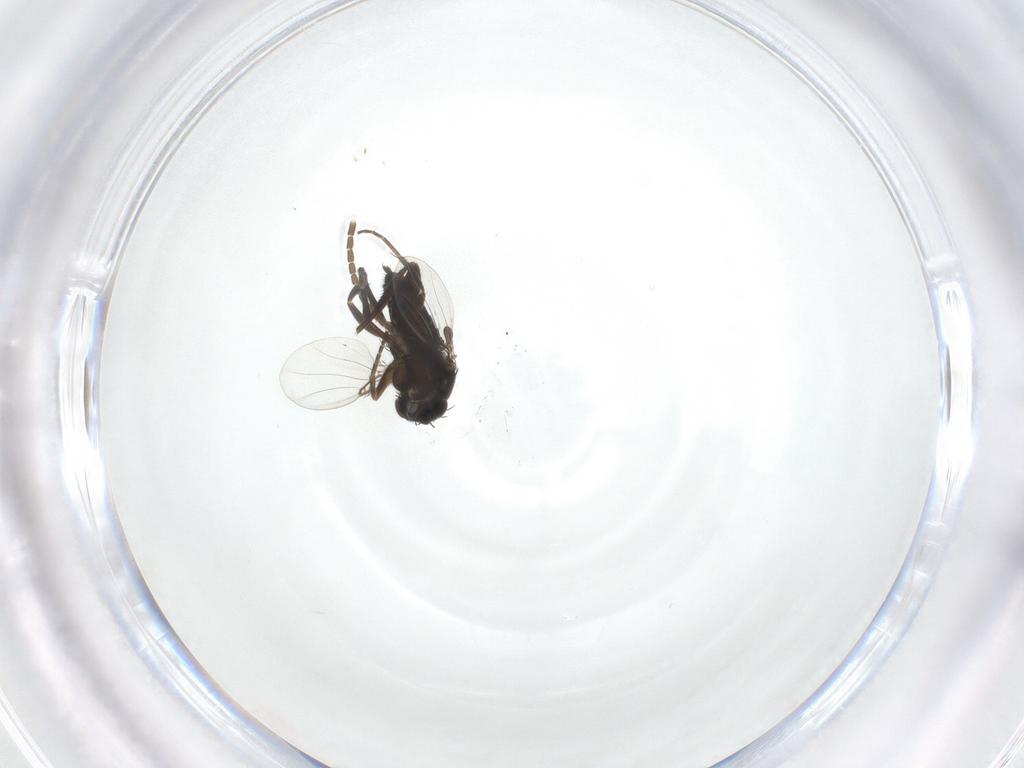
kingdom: Animalia
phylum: Arthropoda
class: Insecta
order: Diptera
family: Phoridae
